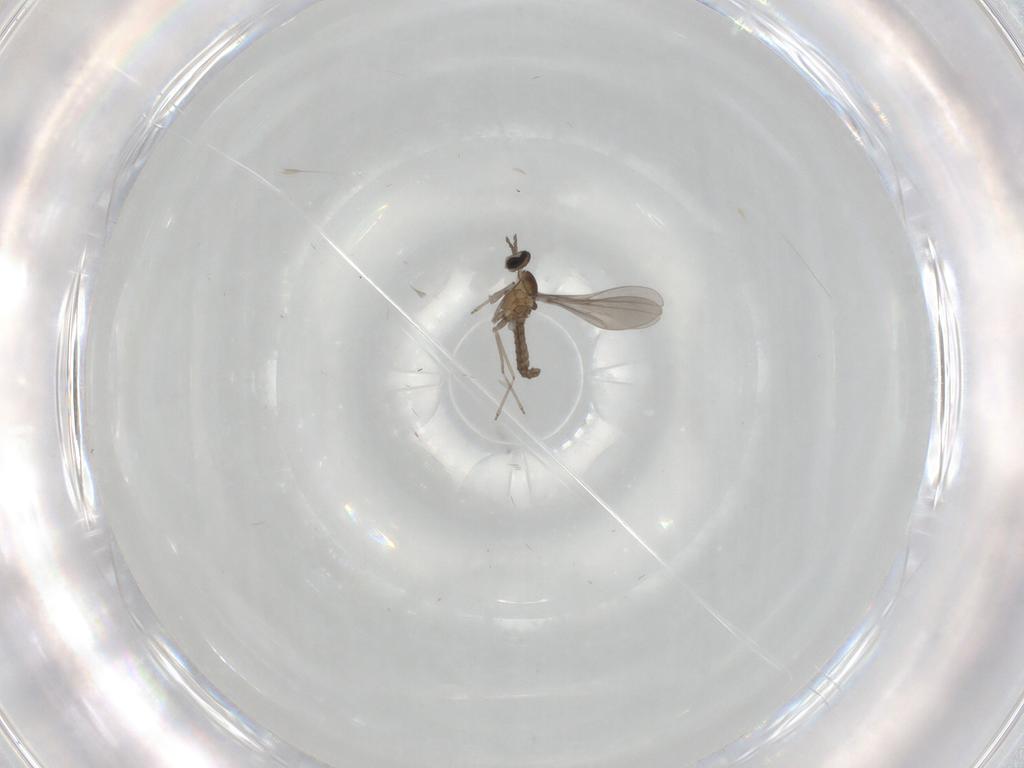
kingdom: Animalia
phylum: Arthropoda
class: Insecta
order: Diptera
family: Cecidomyiidae
